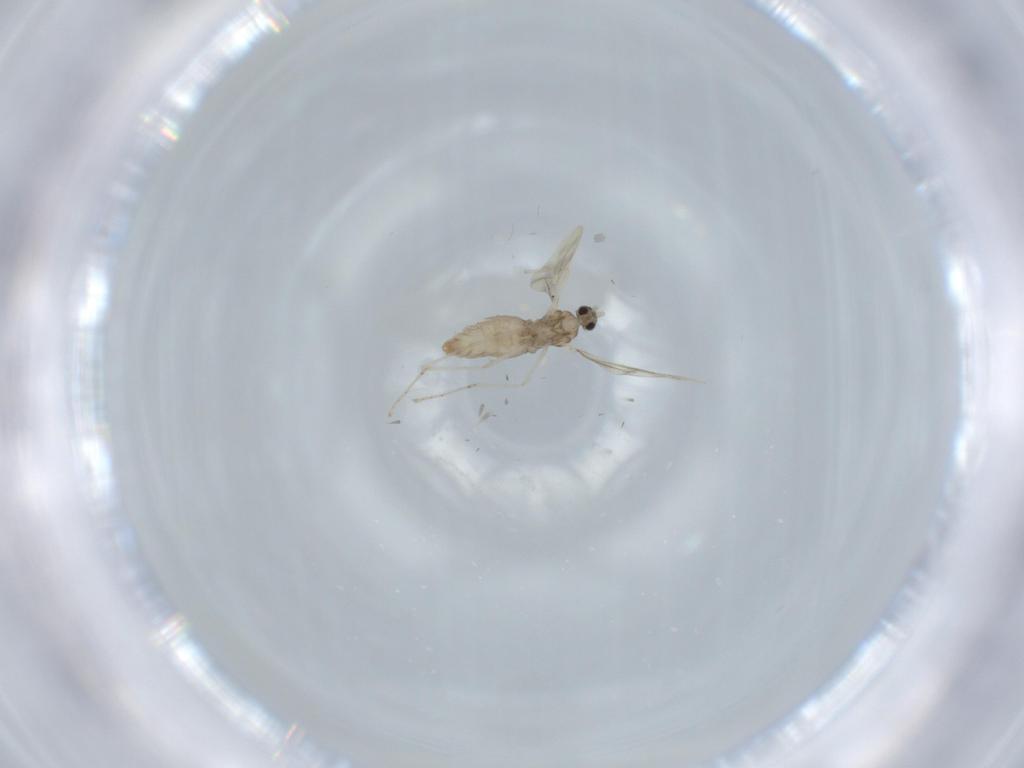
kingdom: Animalia
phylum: Arthropoda
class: Insecta
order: Diptera
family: Cecidomyiidae
